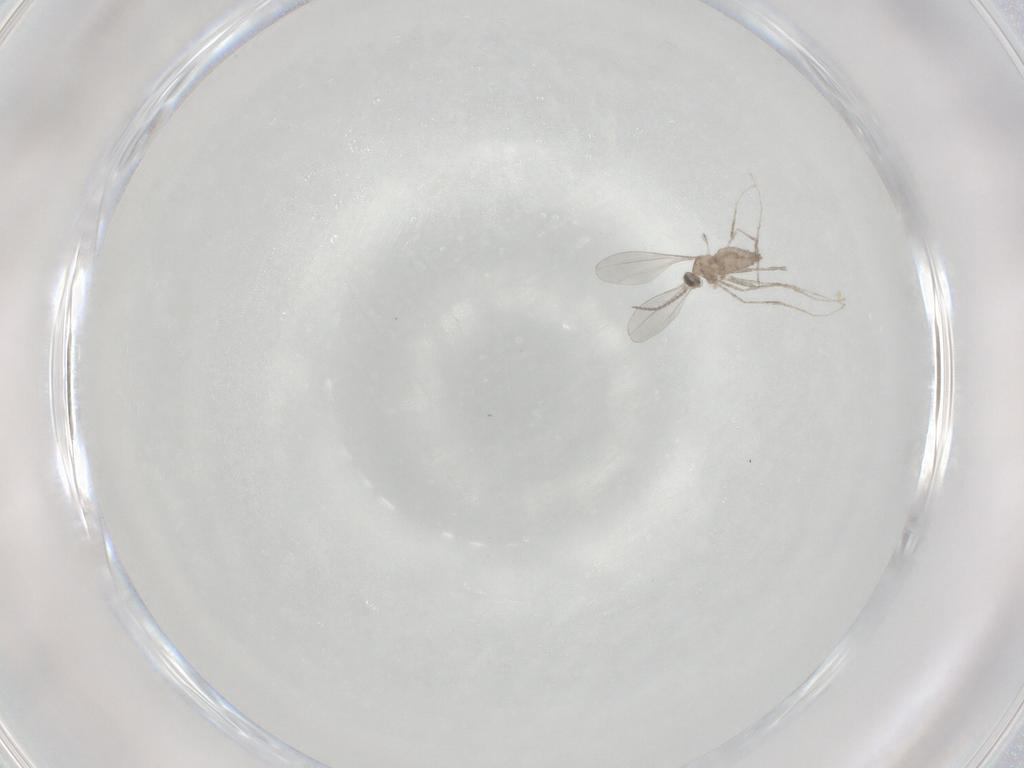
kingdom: Animalia
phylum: Arthropoda
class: Insecta
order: Diptera
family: Cecidomyiidae
